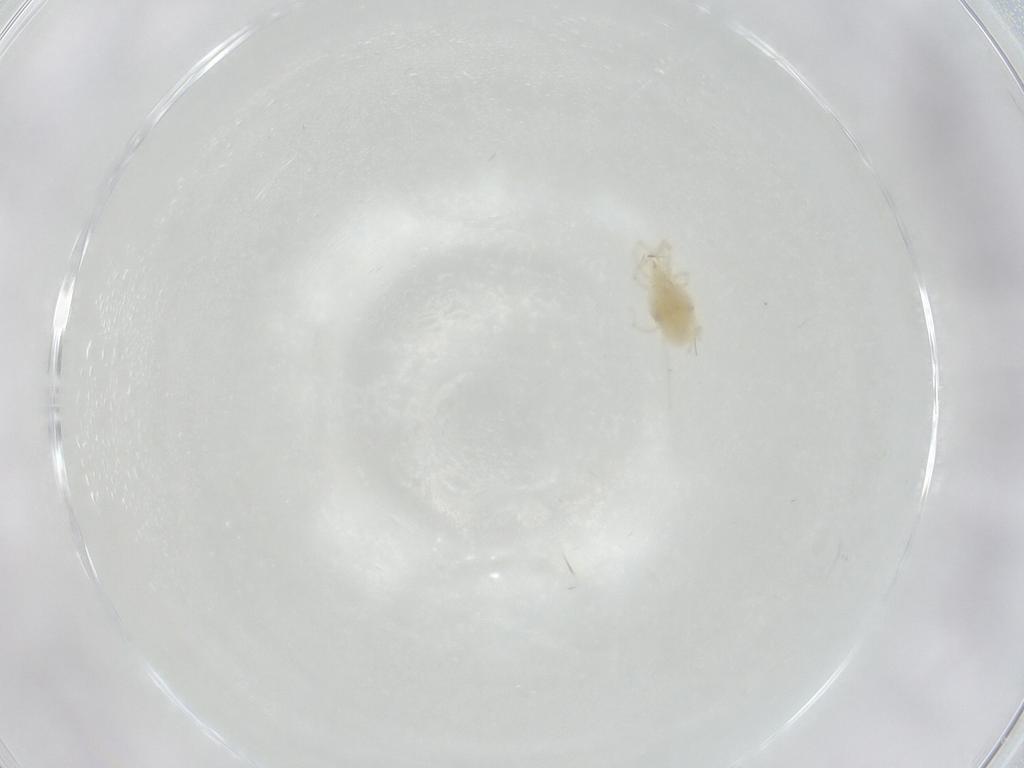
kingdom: Animalia
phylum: Arthropoda
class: Arachnida
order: Trombidiformes
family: Erythraeidae
